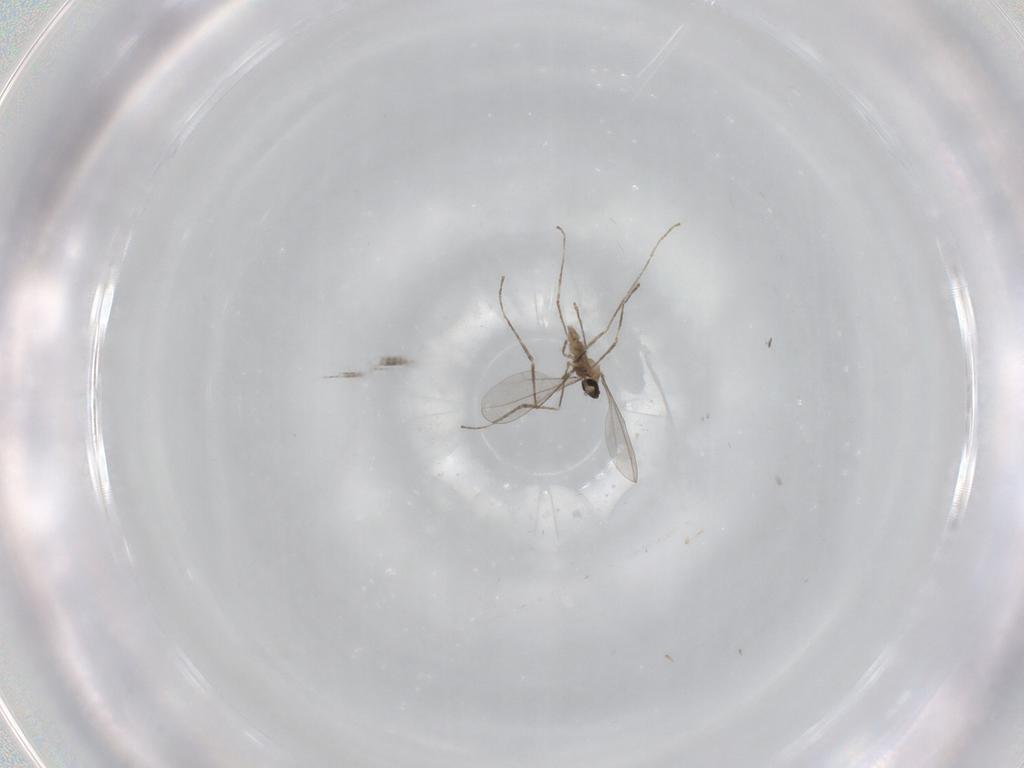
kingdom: Animalia
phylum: Arthropoda
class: Insecta
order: Diptera
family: Cecidomyiidae
